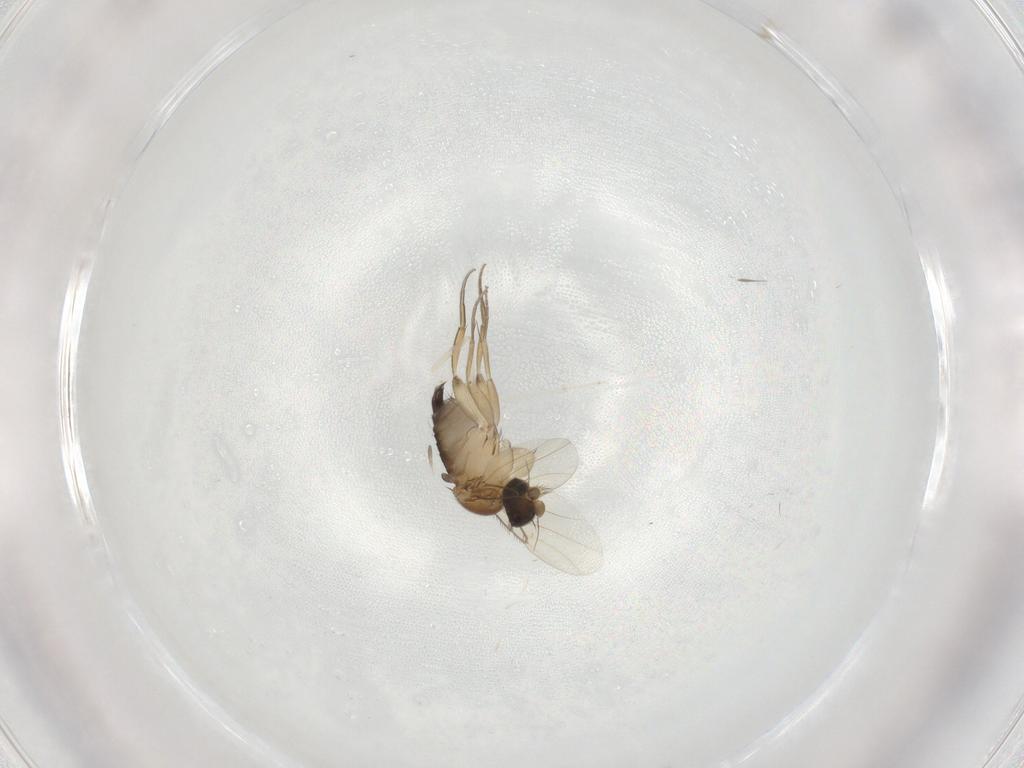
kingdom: Animalia
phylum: Arthropoda
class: Insecta
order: Diptera
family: Phoridae
